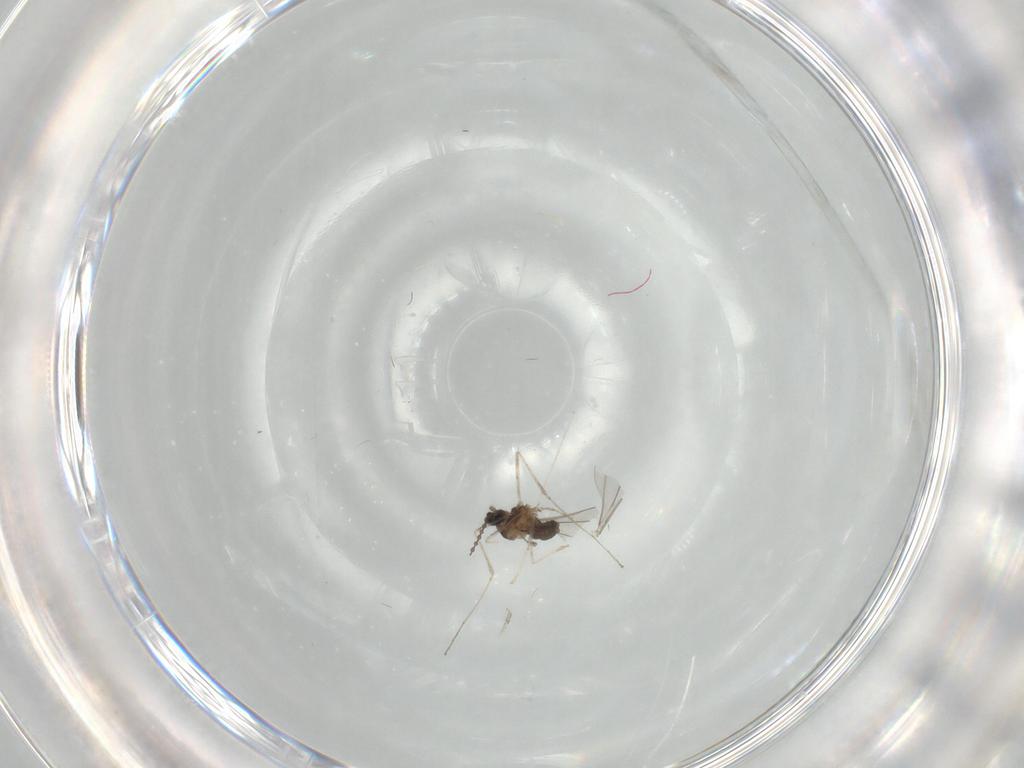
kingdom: Animalia
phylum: Arthropoda
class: Insecta
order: Diptera
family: Cecidomyiidae
